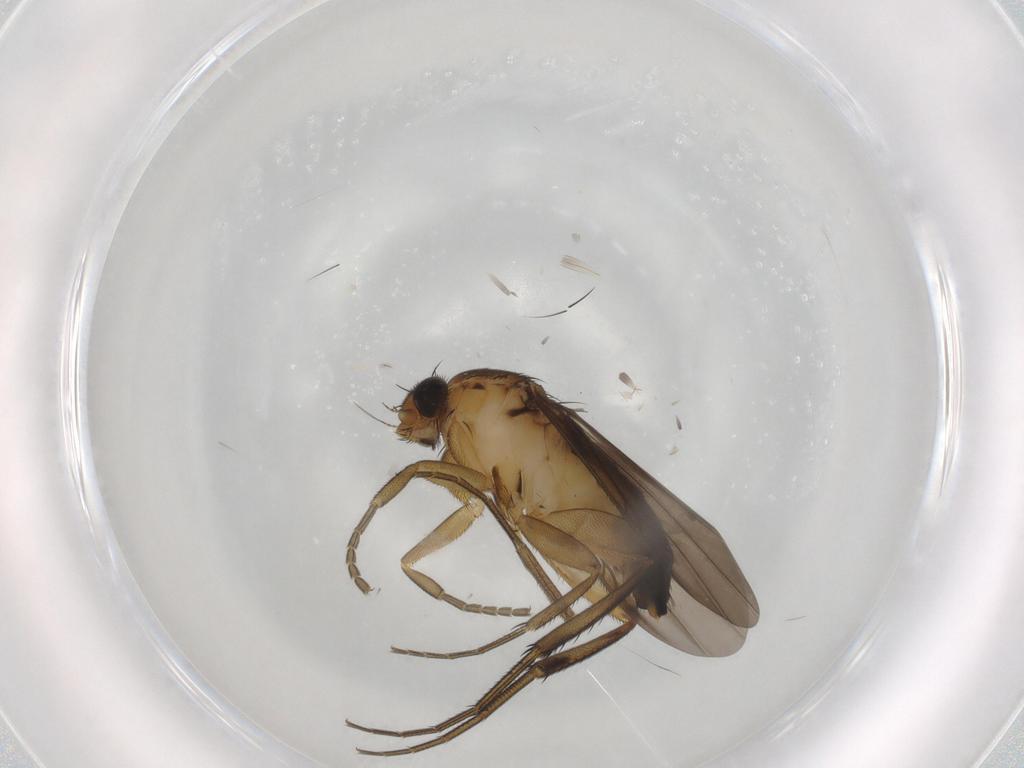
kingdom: Animalia
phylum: Arthropoda
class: Insecta
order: Diptera
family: Phoridae
